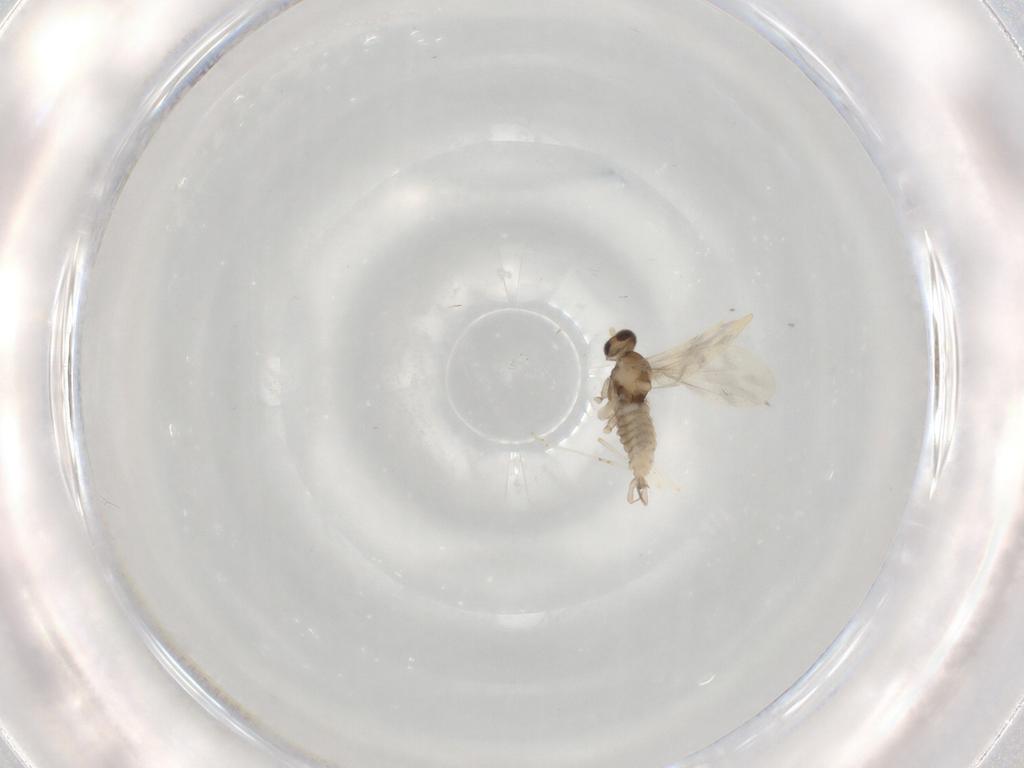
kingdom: Animalia
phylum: Arthropoda
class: Insecta
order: Diptera
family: Cecidomyiidae
